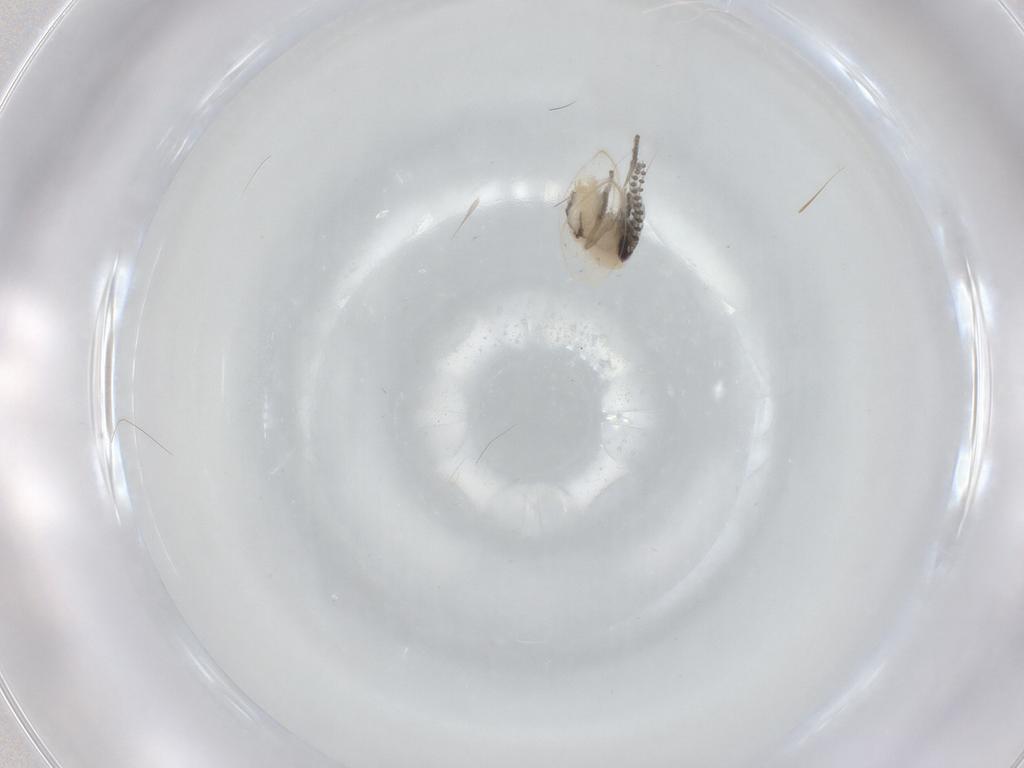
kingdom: Animalia
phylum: Arthropoda
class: Insecta
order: Diptera
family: Psychodidae
